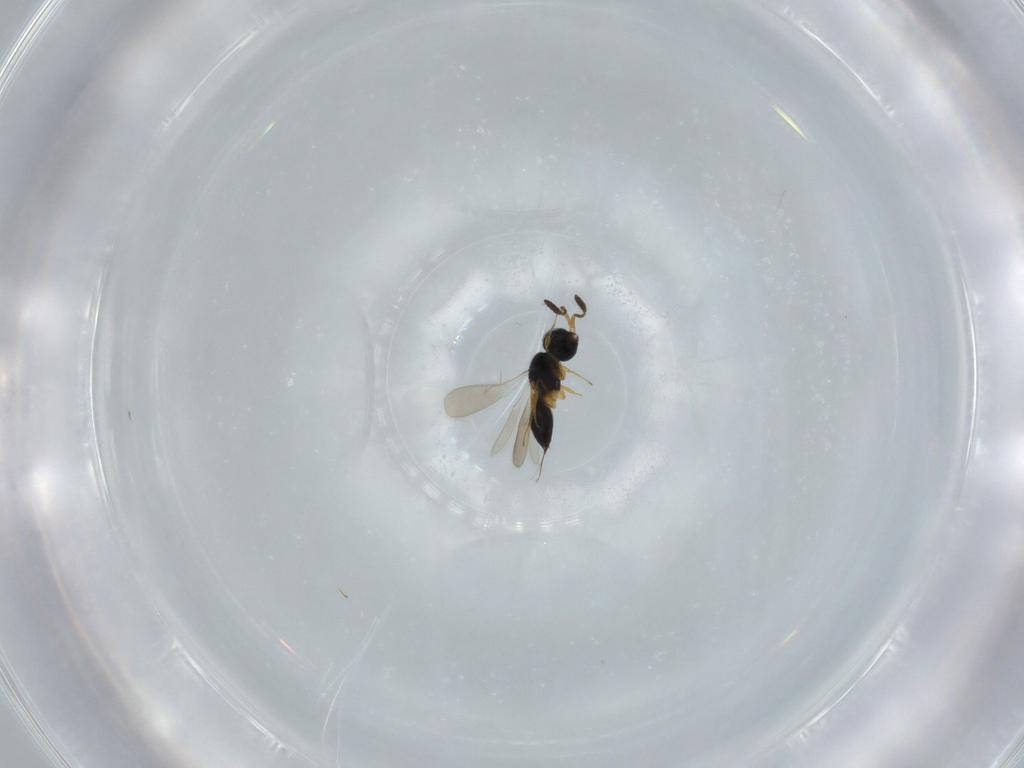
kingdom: Animalia
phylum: Arthropoda
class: Insecta
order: Hymenoptera
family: Scelionidae
